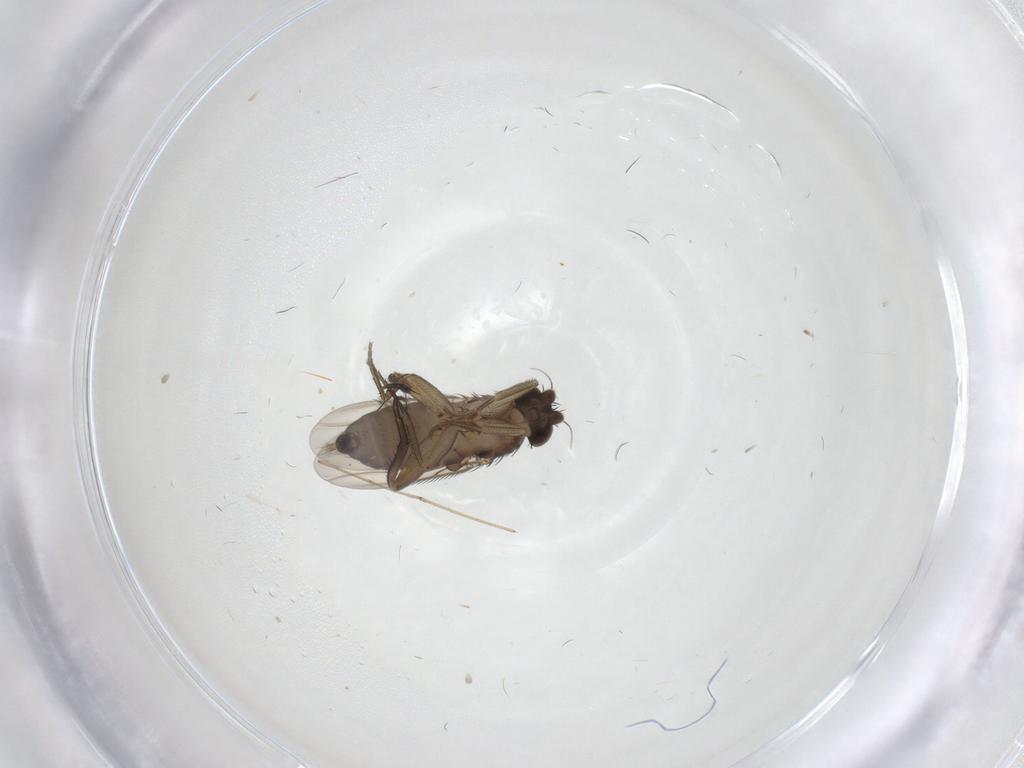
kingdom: Animalia
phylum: Arthropoda
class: Insecta
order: Diptera
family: Phoridae
